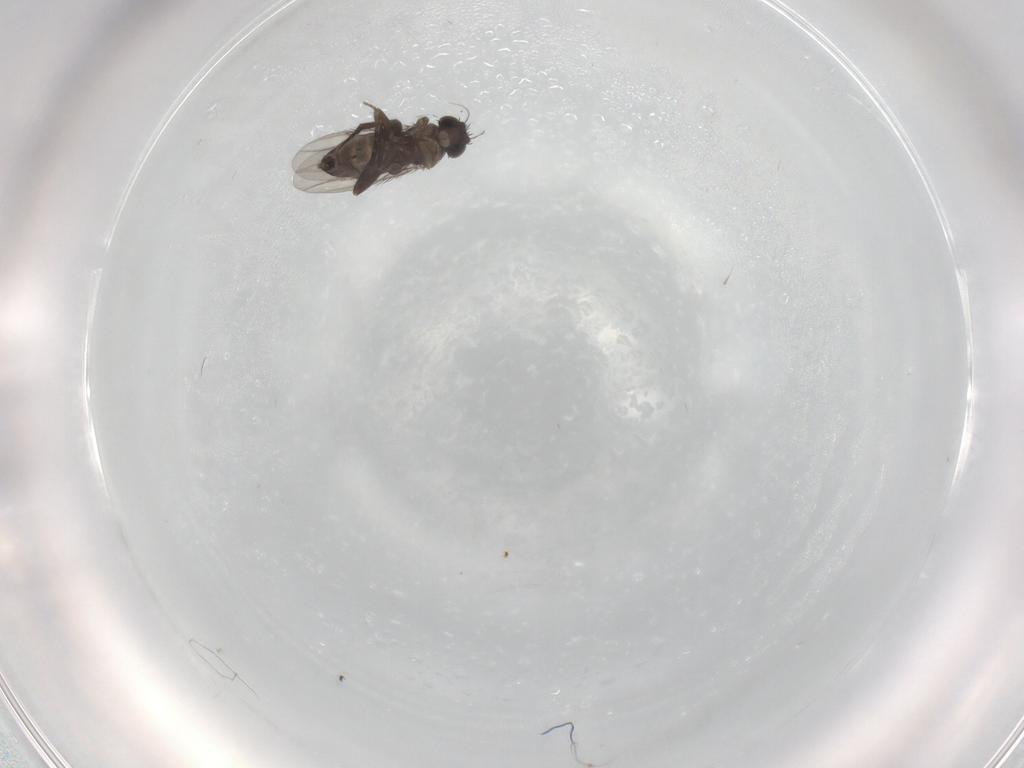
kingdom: Animalia
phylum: Arthropoda
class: Insecta
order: Diptera
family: Phoridae
